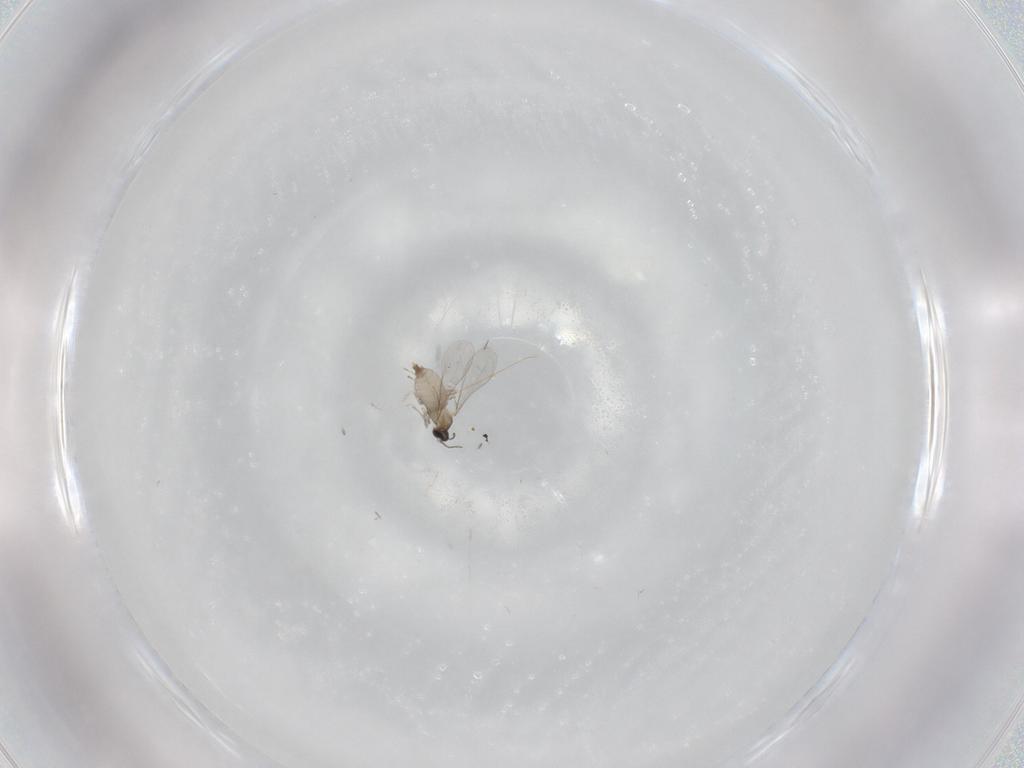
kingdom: Animalia
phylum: Arthropoda
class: Insecta
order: Diptera
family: Cecidomyiidae
